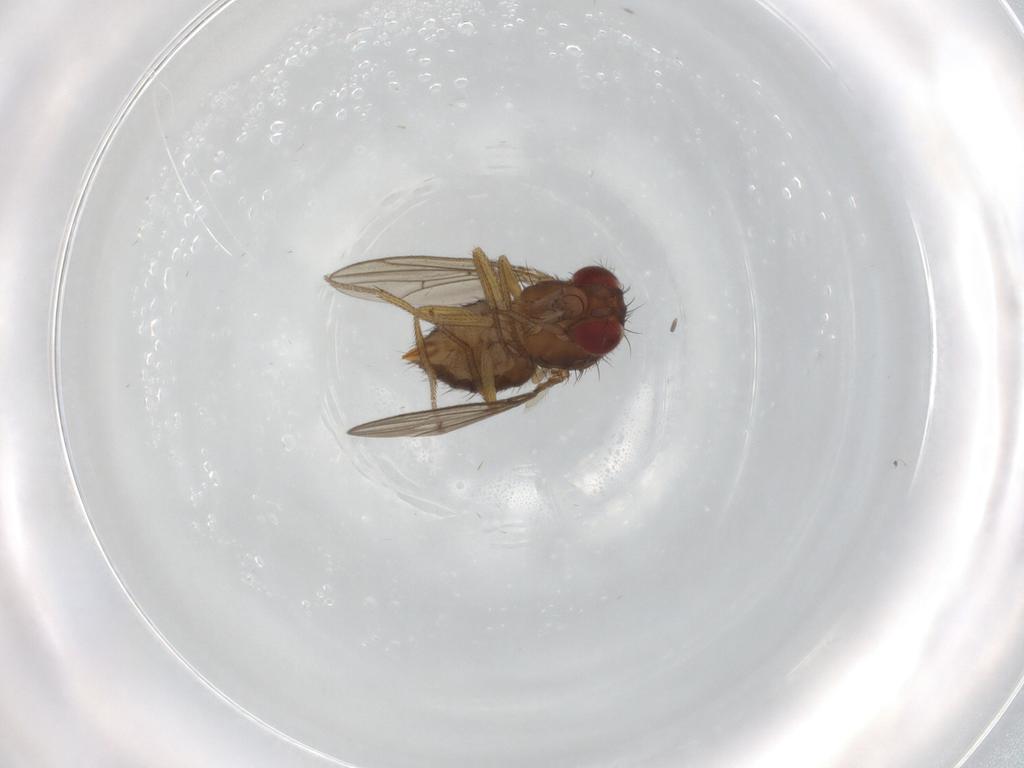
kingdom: Animalia
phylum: Arthropoda
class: Insecta
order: Diptera
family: Drosophilidae
